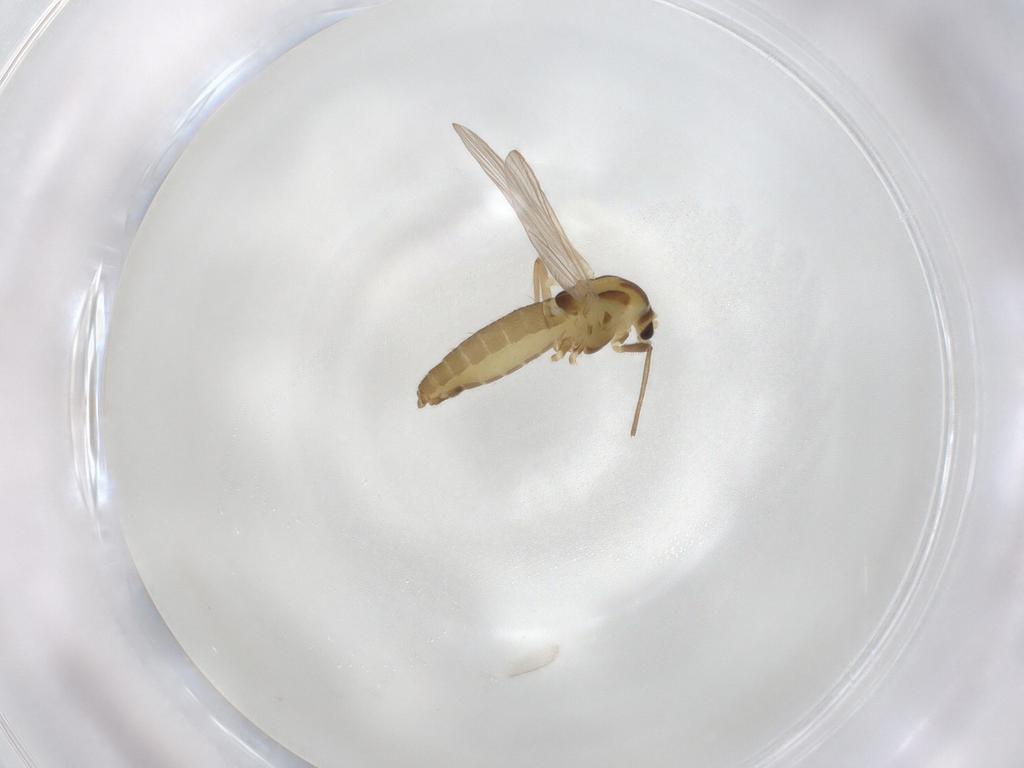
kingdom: Animalia
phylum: Arthropoda
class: Insecta
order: Diptera
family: Chironomidae
